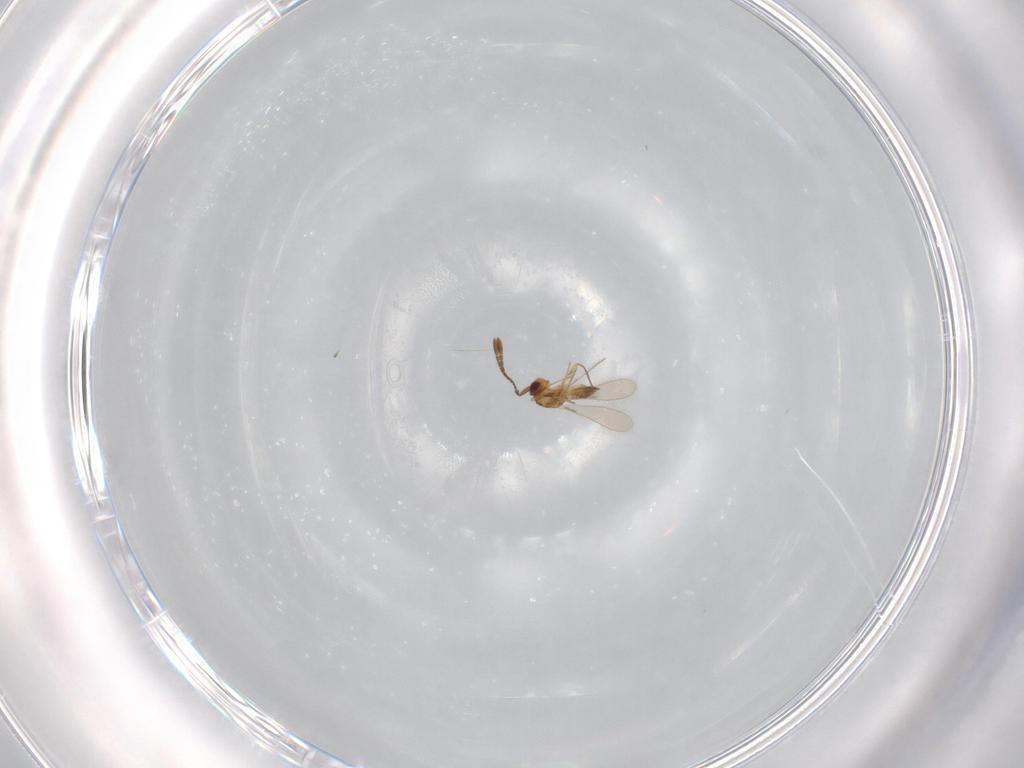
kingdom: Animalia
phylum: Arthropoda
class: Insecta
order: Hymenoptera
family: Mymaridae
